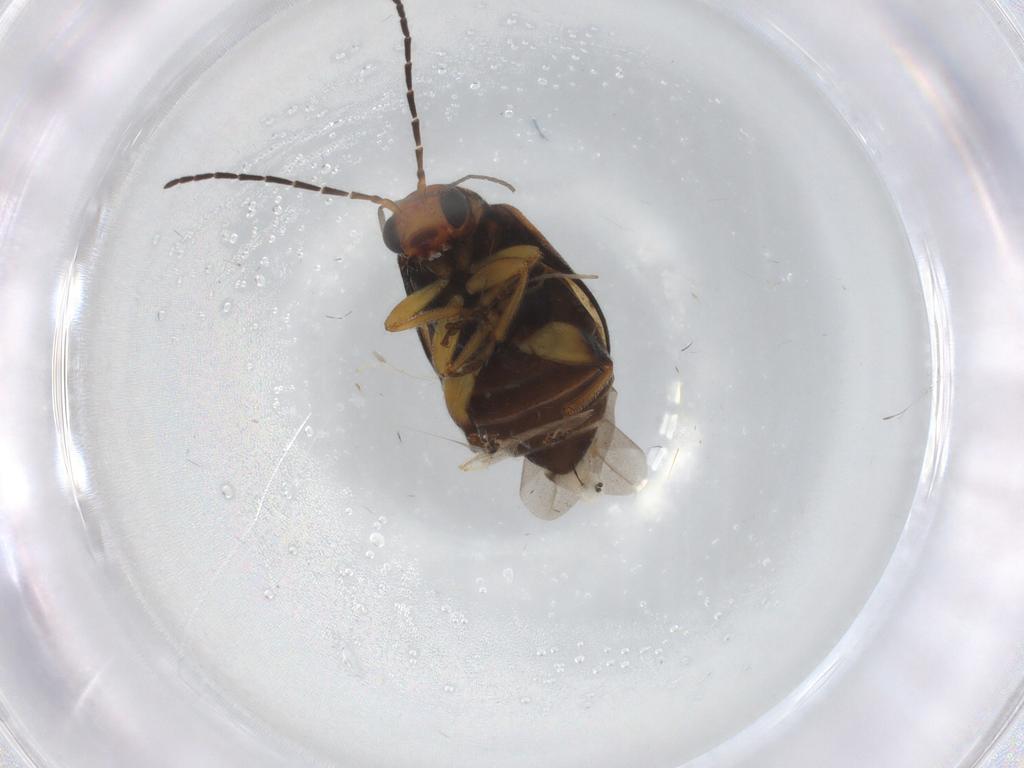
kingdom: Animalia
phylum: Arthropoda
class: Insecta
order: Coleoptera
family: Chrysomelidae
